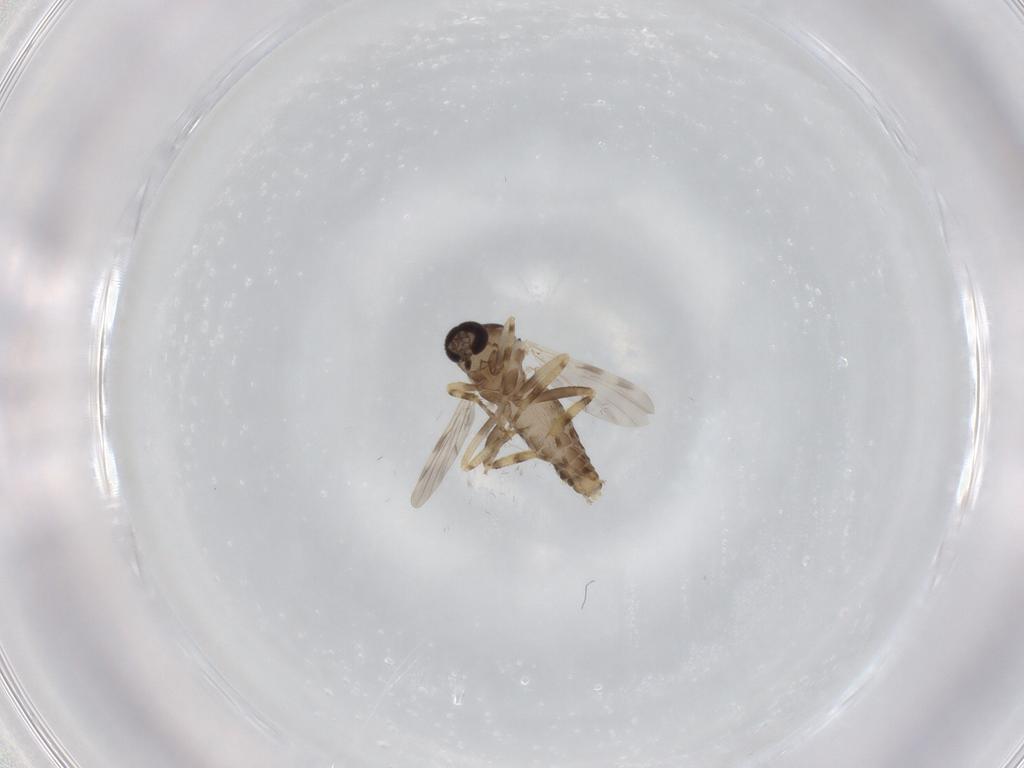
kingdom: Animalia
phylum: Arthropoda
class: Insecta
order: Diptera
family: Ceratopogonidae
